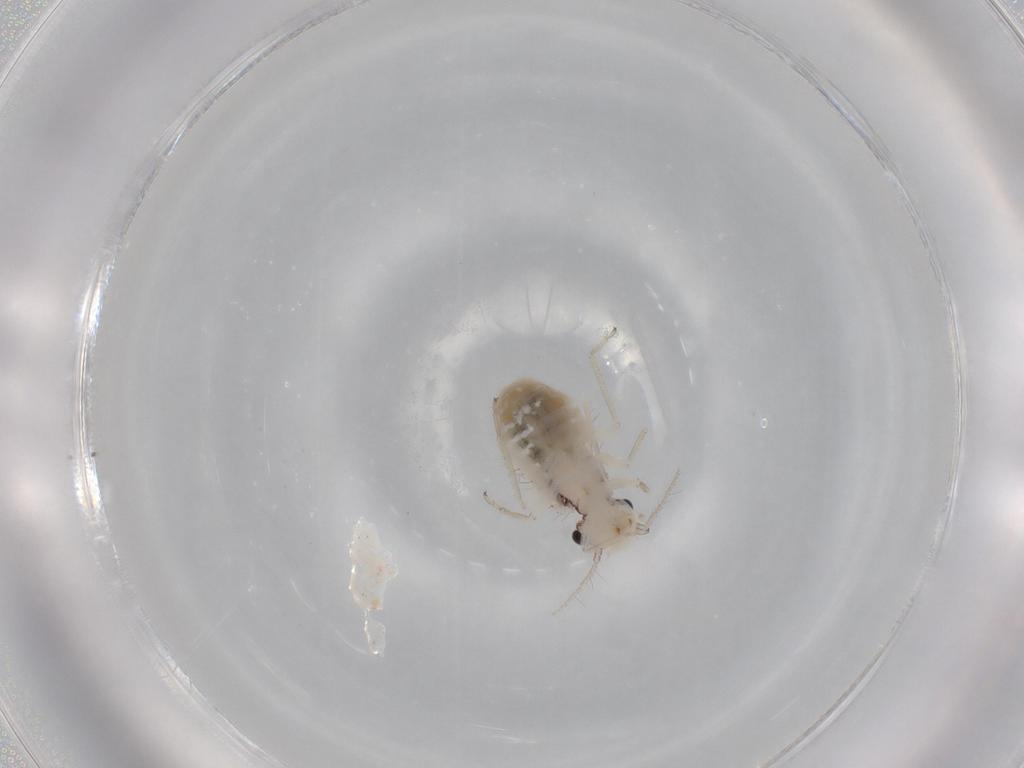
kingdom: Animalia
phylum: Arthropoda
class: Insecta
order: Psocodea
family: Pseudocaeciliidae
